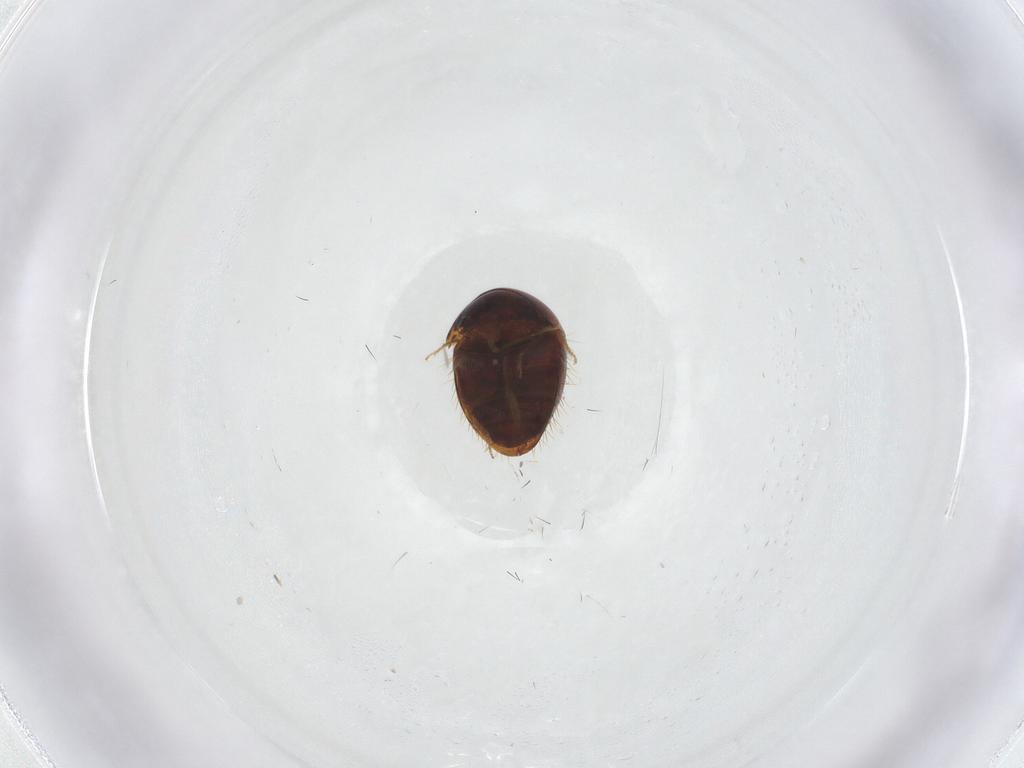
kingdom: Animalia
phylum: Arthropoda
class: Insecta
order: Coleoptera
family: Clambidae
